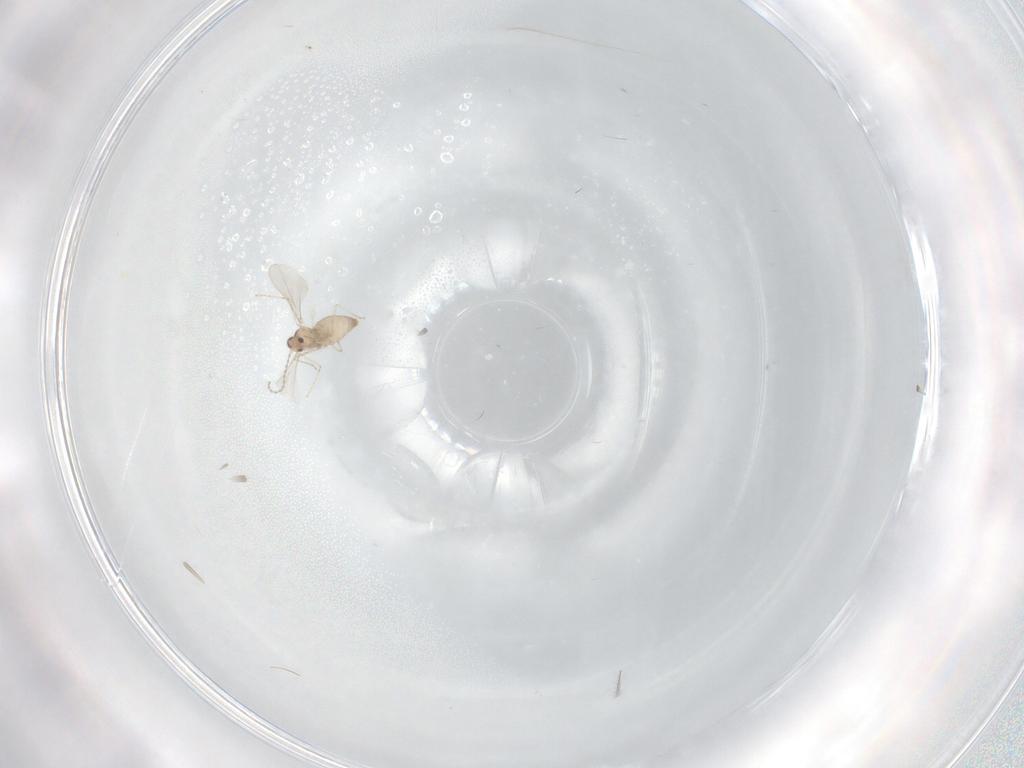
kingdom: Animalia
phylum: Arthropoda
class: Insecta
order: Diptera
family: Cecidomyiidae
